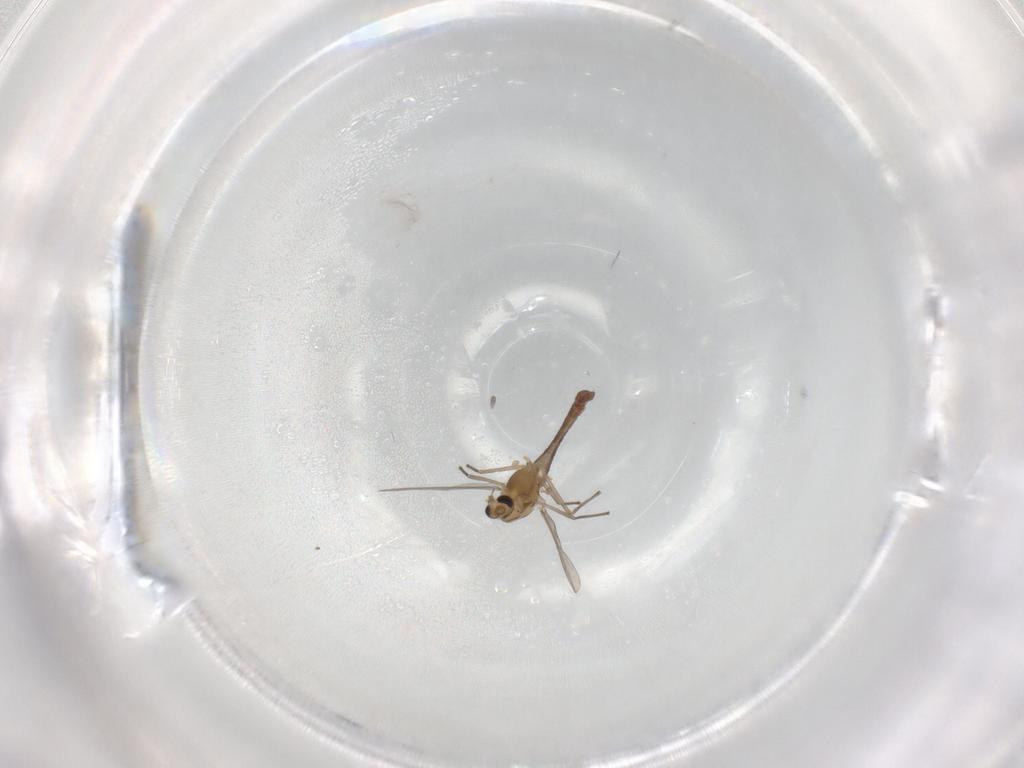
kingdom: Animalia
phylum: Arthropoda
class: Insecta
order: Diptera
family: Chironomidae
